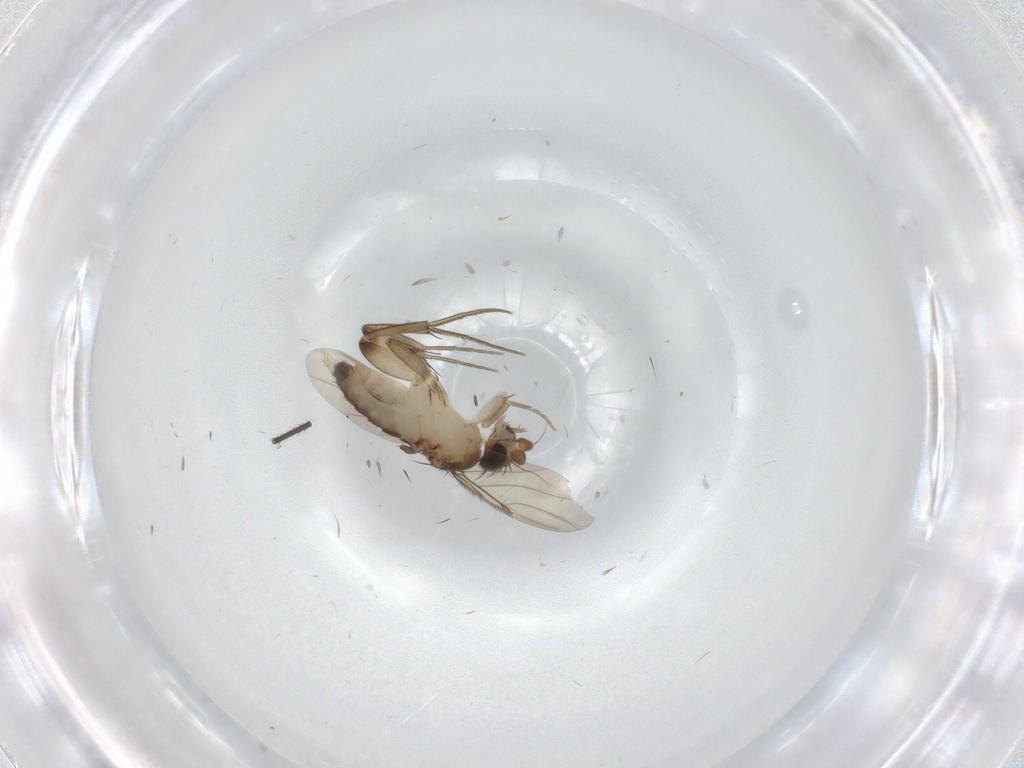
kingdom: Animalia
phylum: Arthropoda
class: Insecta
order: Diptera
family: Phoridae
